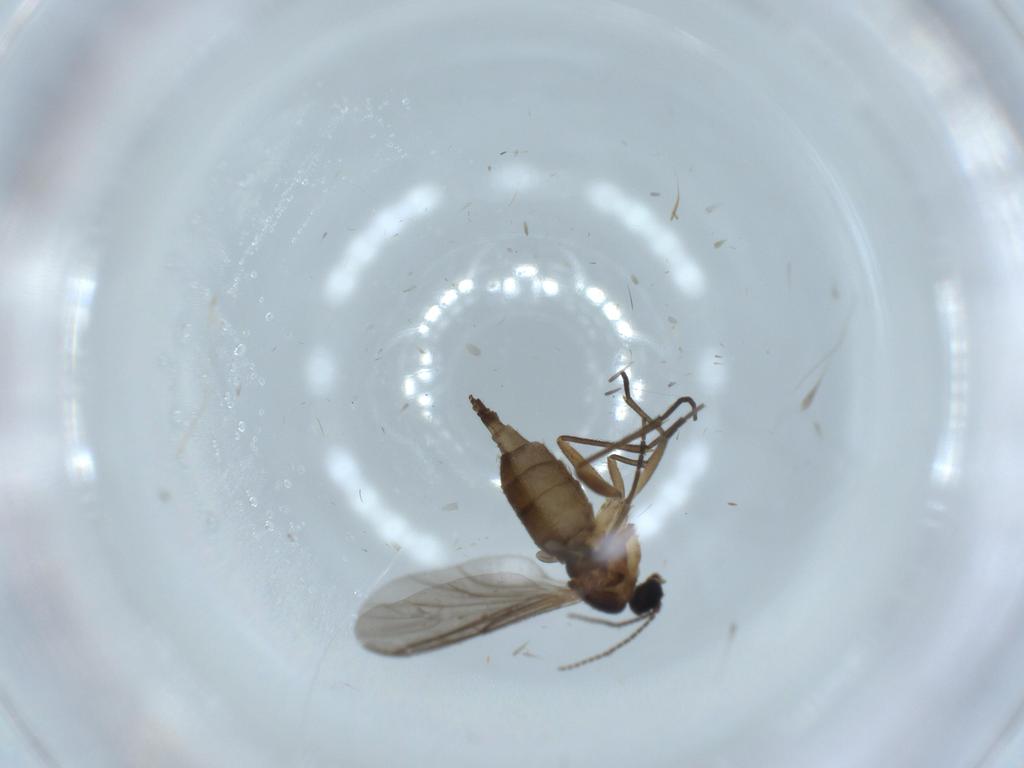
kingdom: Animalia
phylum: Arthropoda
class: Insecta
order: Diptera
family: Sciaridae
